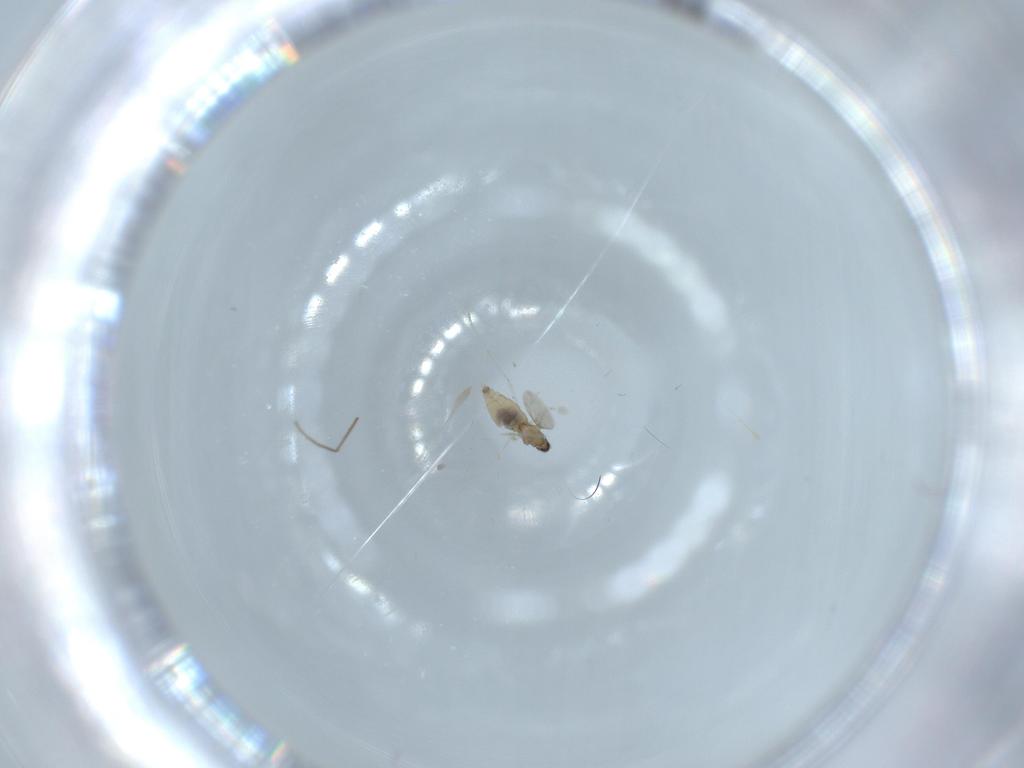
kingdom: Animalia
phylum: Arthropoda
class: Insecta
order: Diptera
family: Cecidomyiidae
